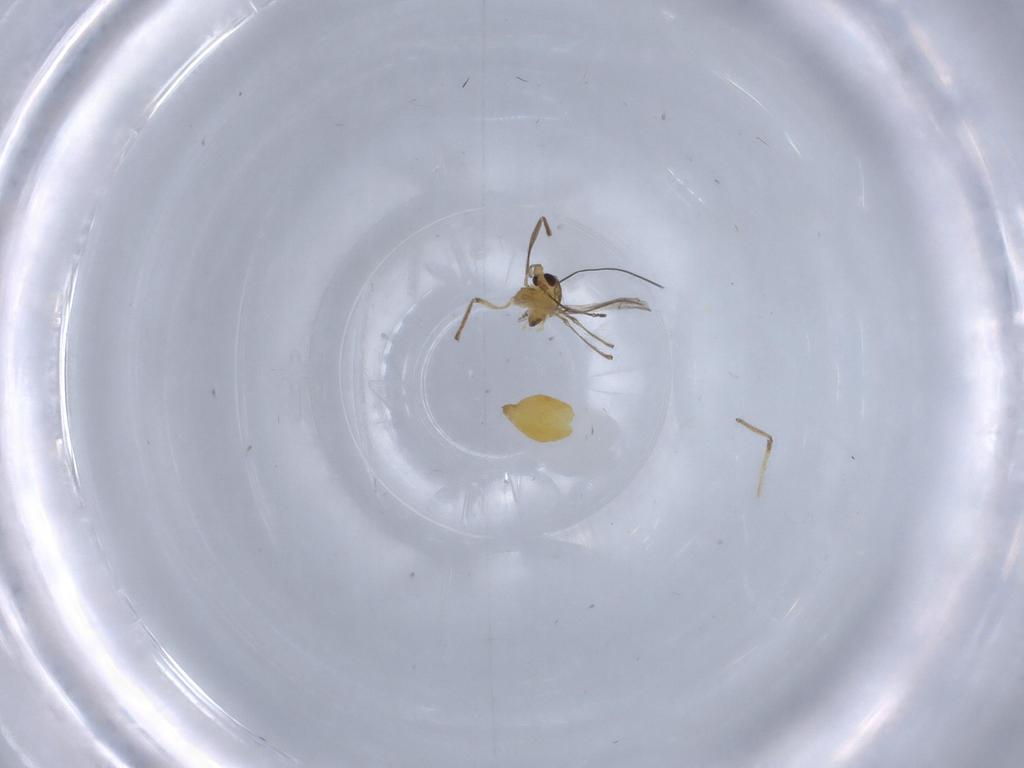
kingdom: Animalia
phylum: Arthropoda
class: Insecta
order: Diptera
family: Chironomidae
